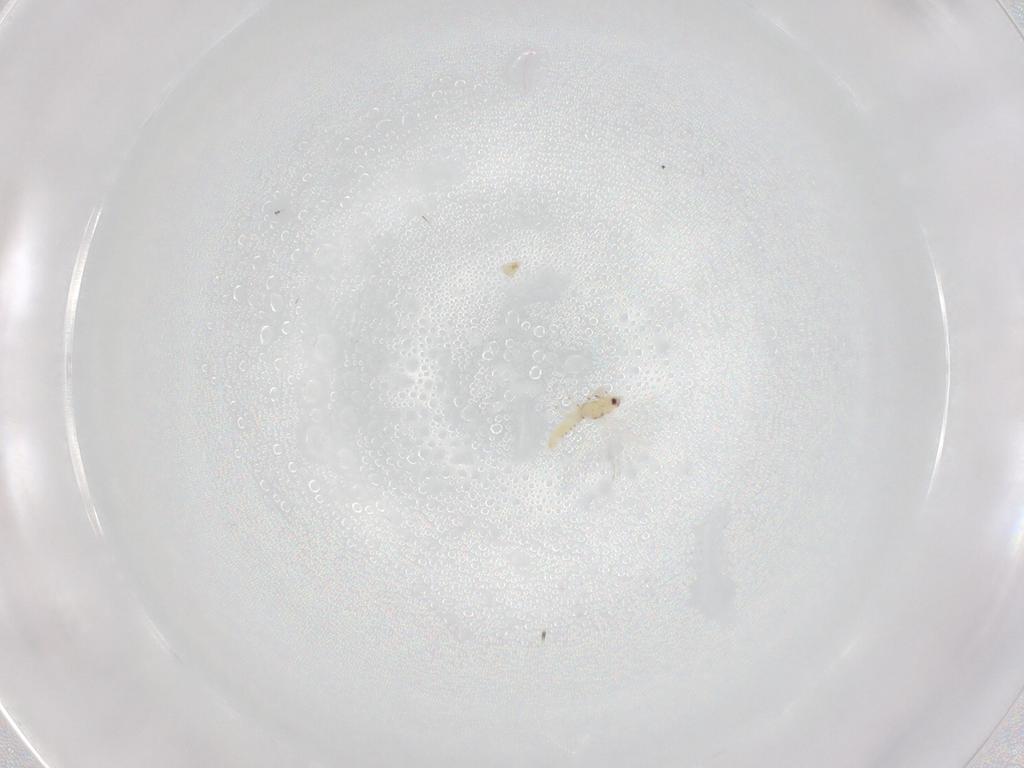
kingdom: Animalia
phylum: Arthropoda
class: Insecta
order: Thysanoptera
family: Thripidae
